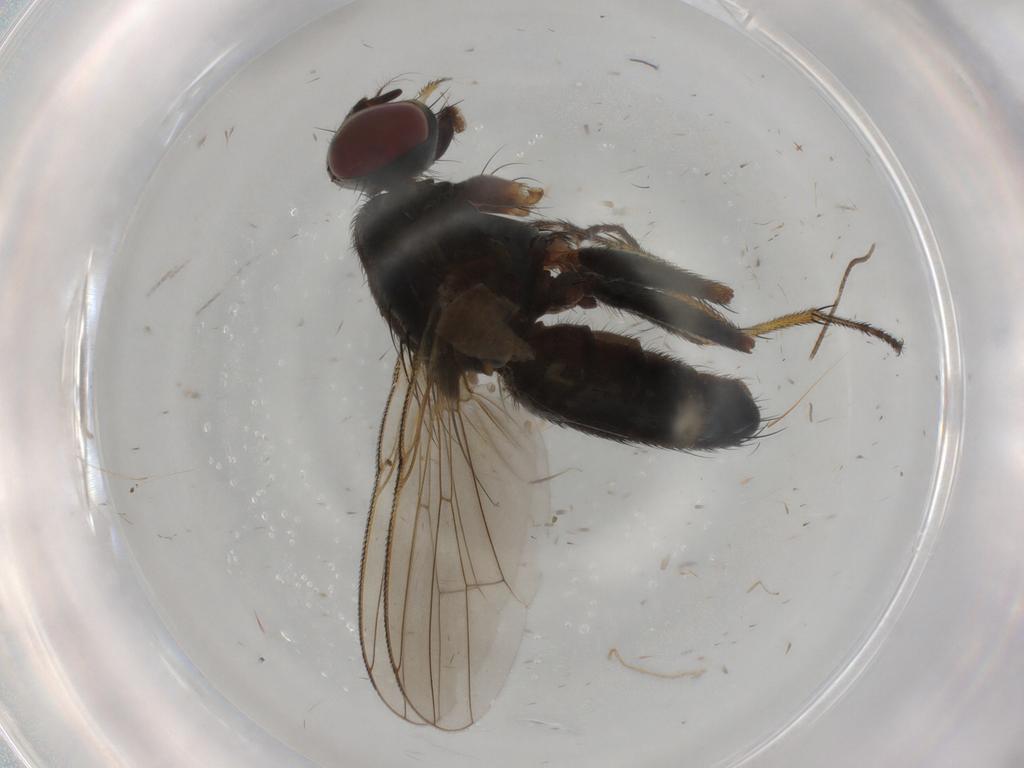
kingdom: Animalia
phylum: Arthropoda
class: Insecta
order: Diptera
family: Muscidae
